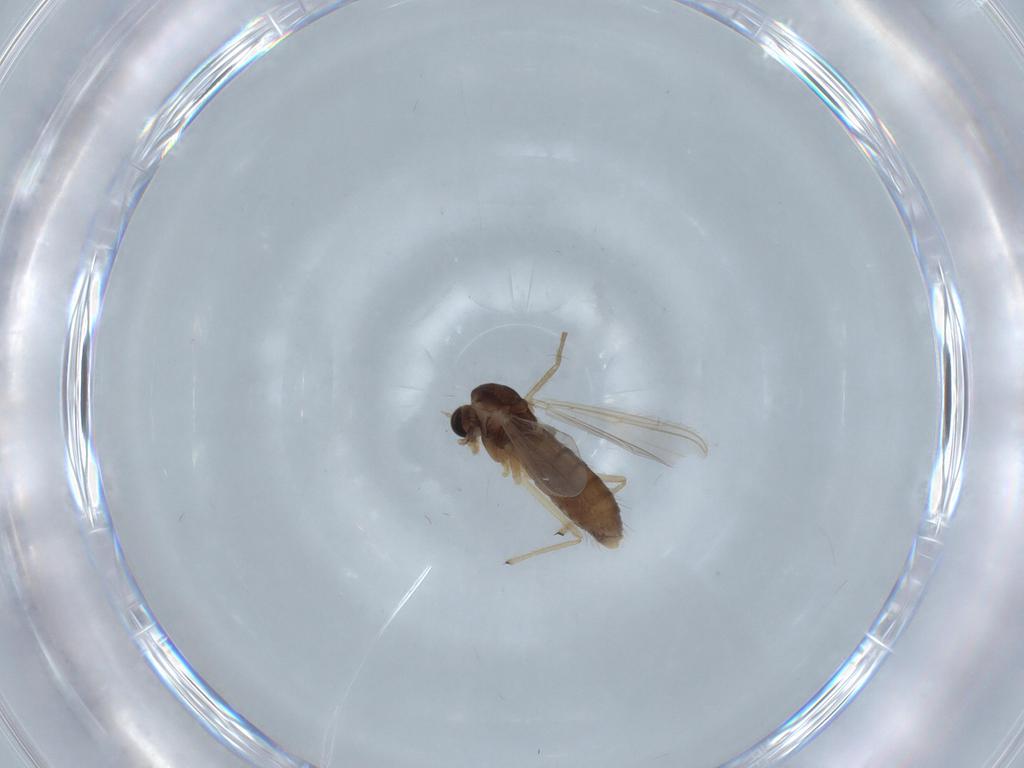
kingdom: Animalia
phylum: Arthropoda
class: Insecta
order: Diptera
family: Chironomidae
